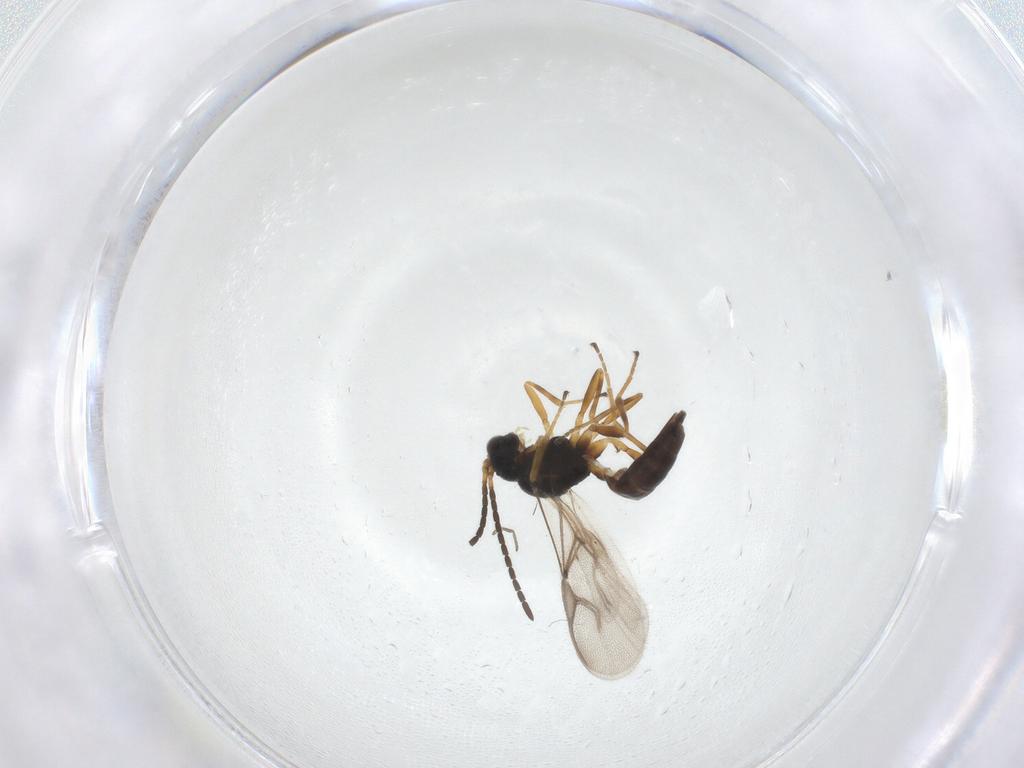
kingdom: Animalia
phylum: Arthropoda
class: Insecta
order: Hymenoptera
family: Braconidae
